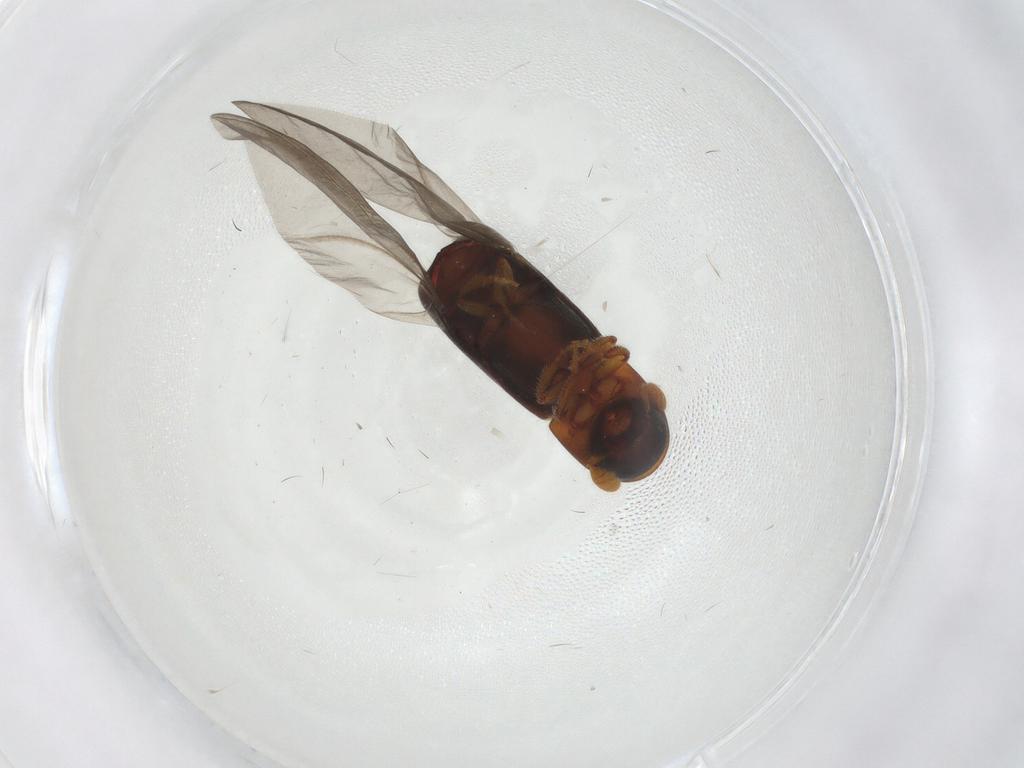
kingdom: Animalia
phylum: Arthropoda
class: Insecta
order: Coleoptera
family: Curculionidae
